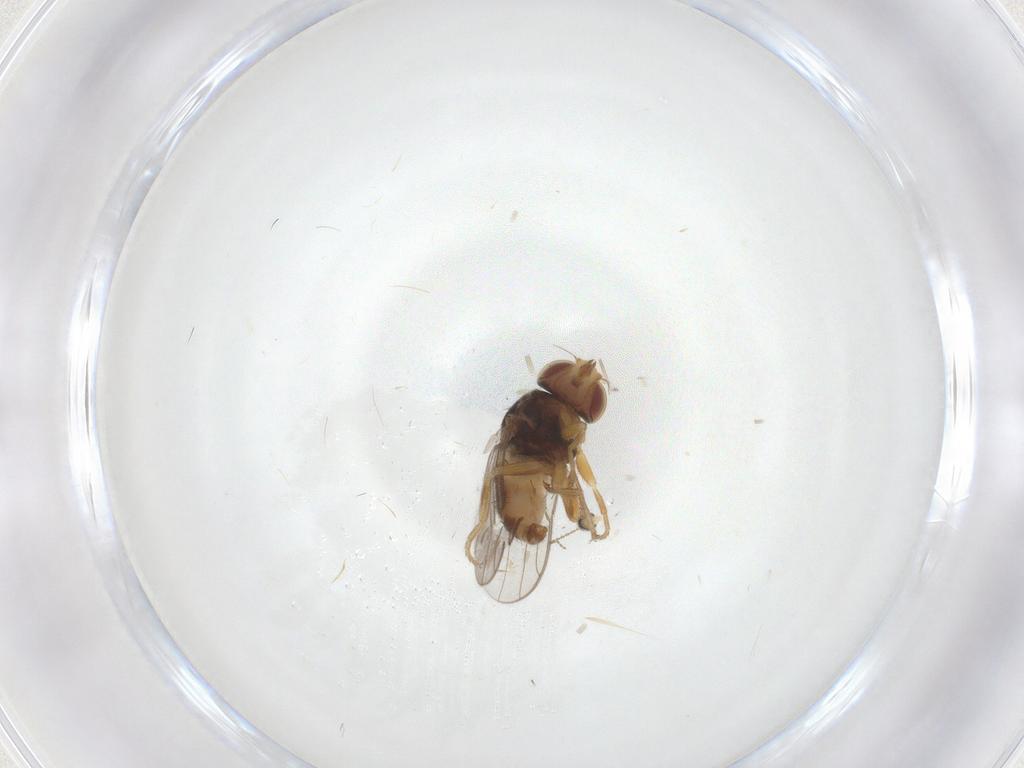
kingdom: Animalia
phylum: Arthropoda
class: Insecta
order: Diptera
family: Chloropidae
